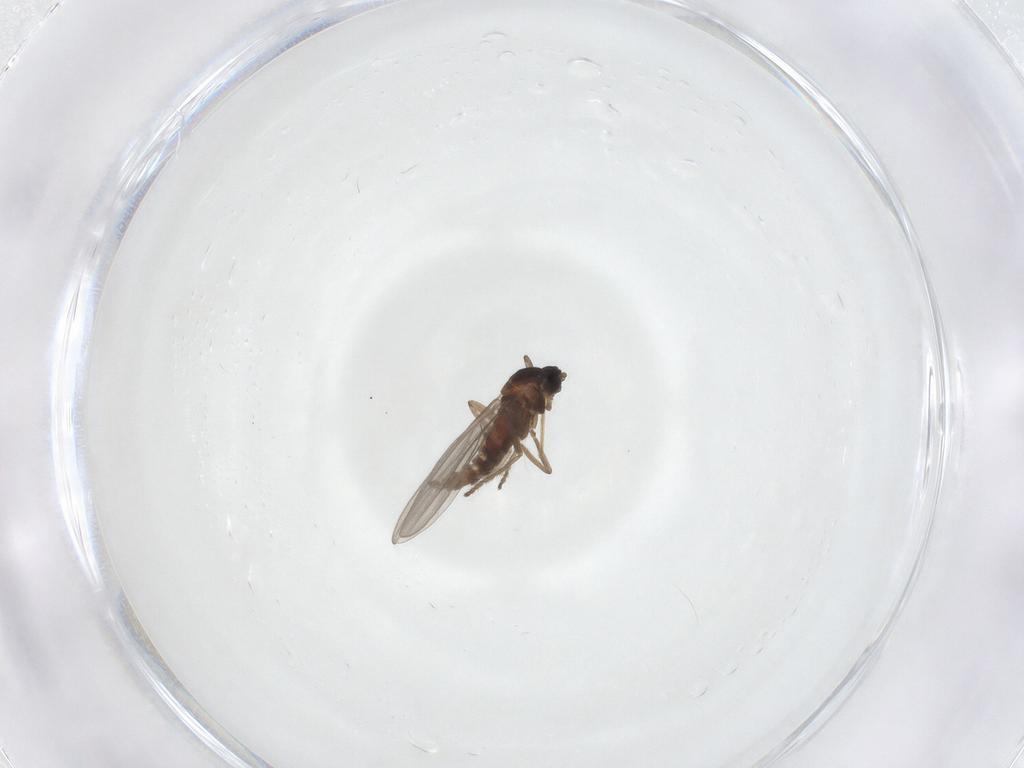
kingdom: Animalia
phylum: Arthropoda
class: Insecta
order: Diptera
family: Cecidomyiidae
